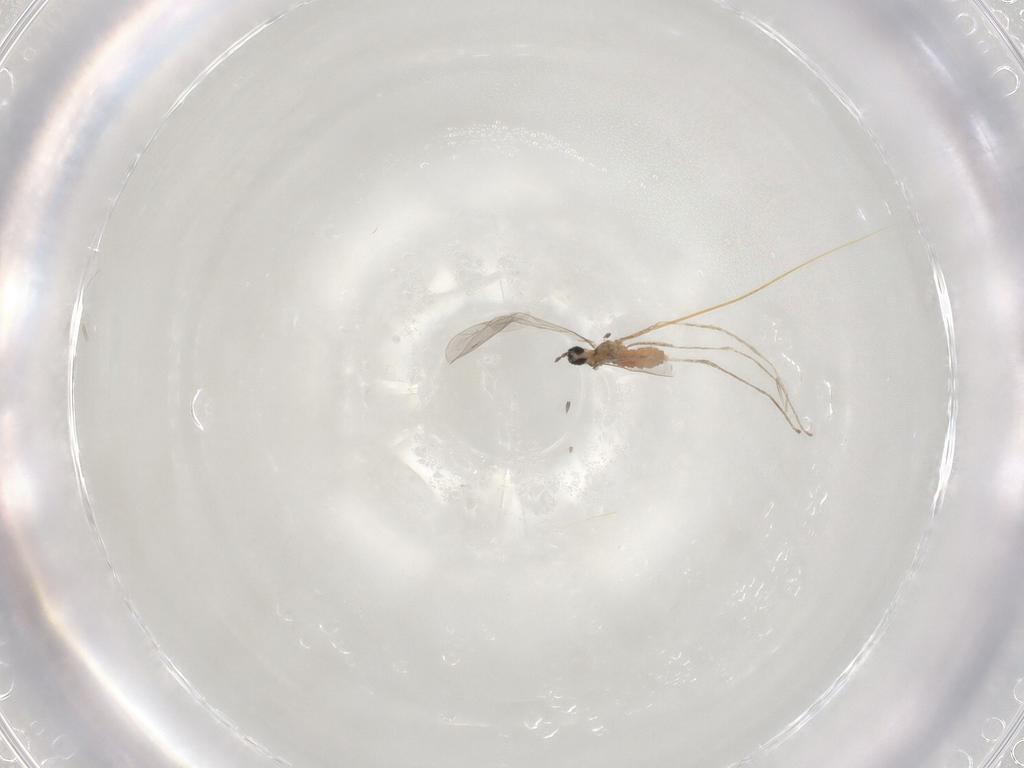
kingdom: Animalia
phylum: Arthropoda
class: Insecta
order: Diptera
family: Cecidomyiidae
